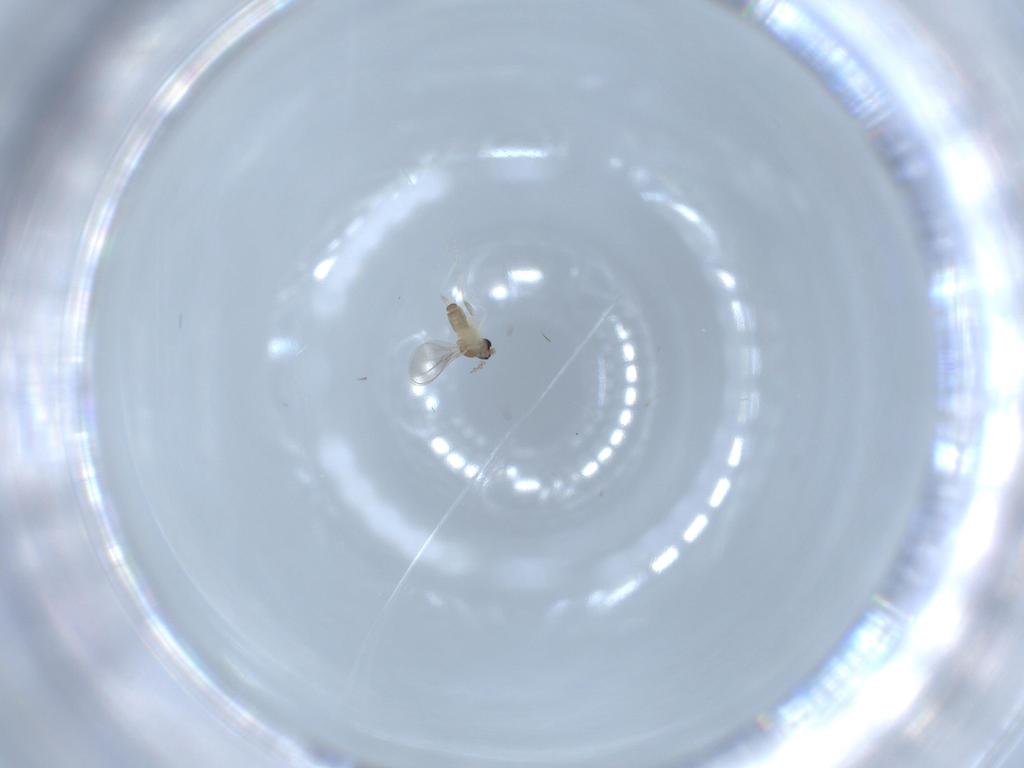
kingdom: Animalia
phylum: Arthropoda
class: Insecta
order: Diptera
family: Cecidomyiidae
